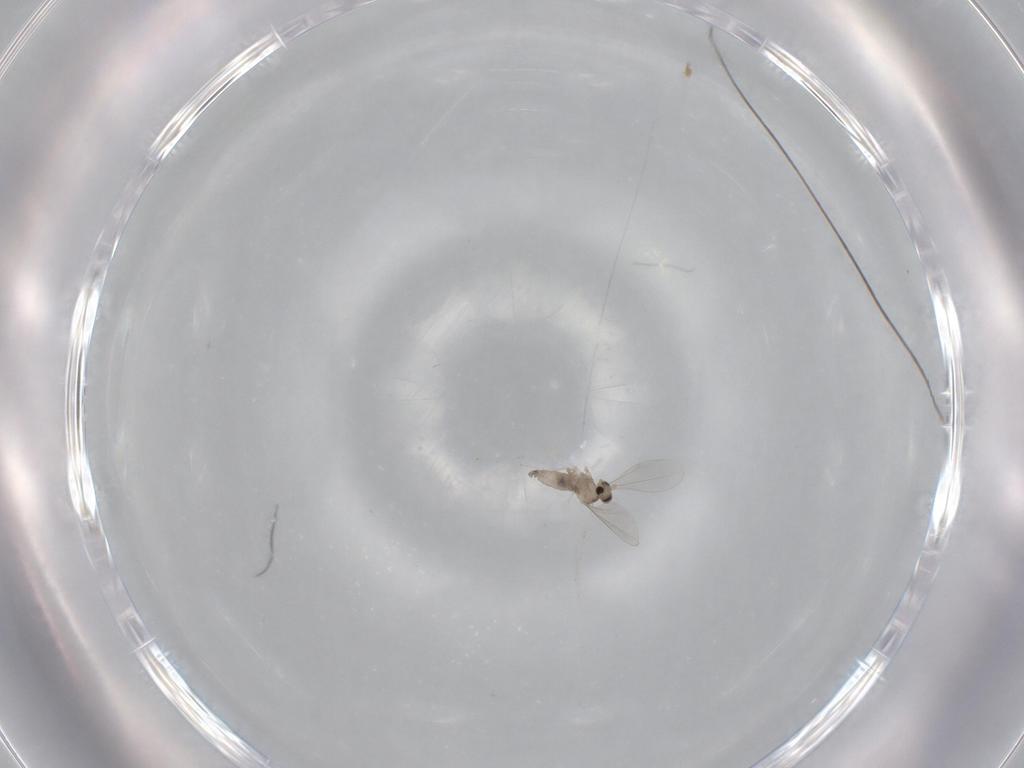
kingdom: Animalia
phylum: Arthropoda
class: Insecta
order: Diptera
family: Cecidomyiidae
